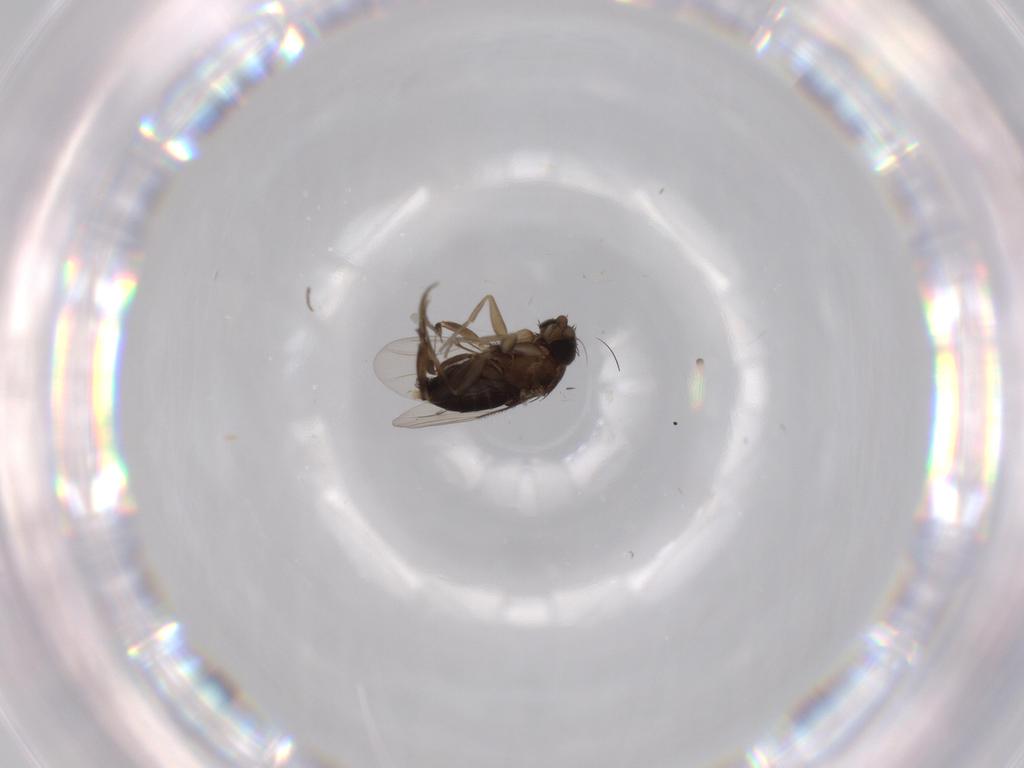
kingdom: Animalia
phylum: Arthropoda
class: Insecta
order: Diptera
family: Phoridae
